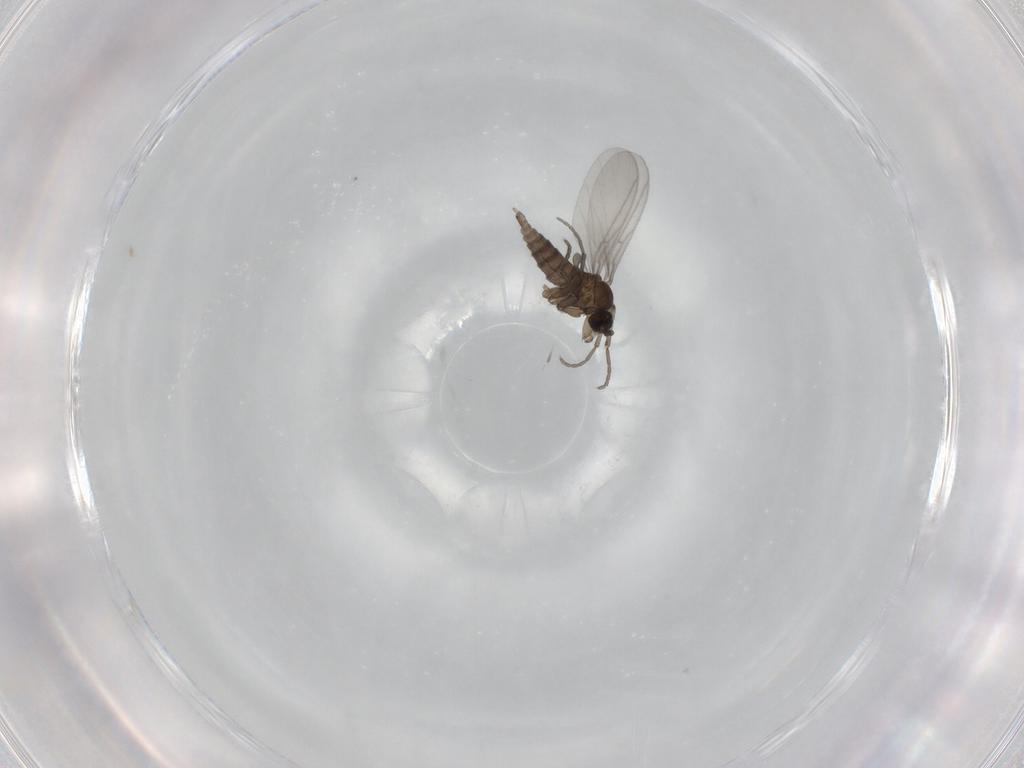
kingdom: Animalia
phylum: Arthropoda
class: Insecta
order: Diptera
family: Sciaridae
